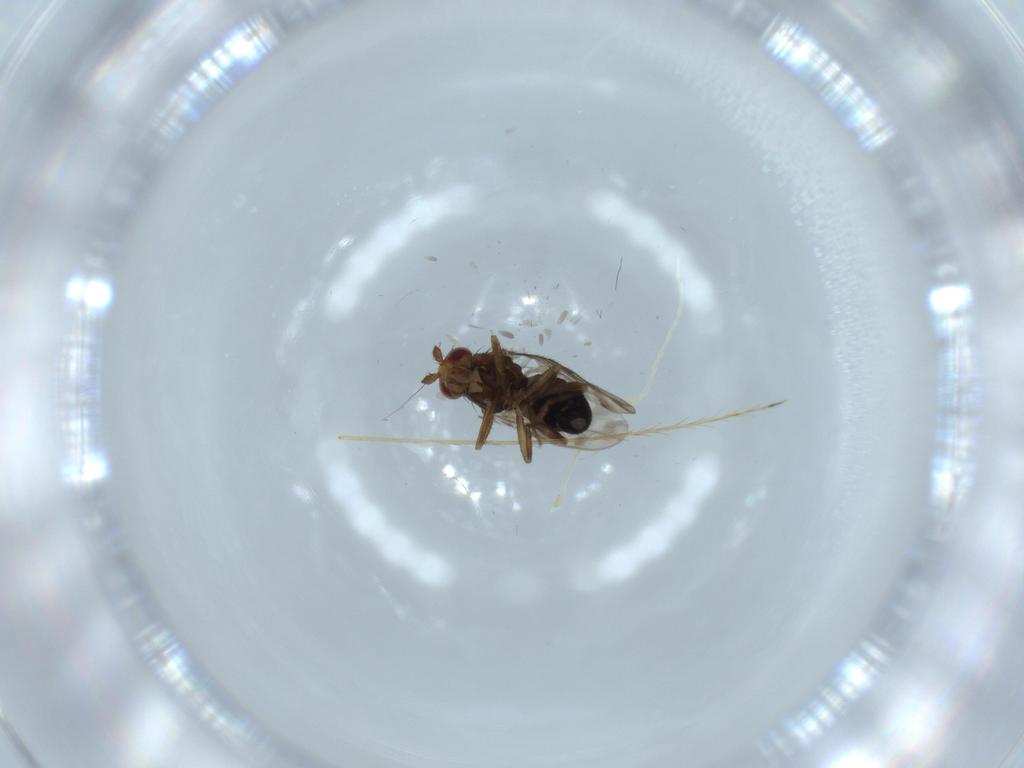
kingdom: Animalia
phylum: Arthropoda
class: Insecta
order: Diptera
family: Sphaeroceridae
